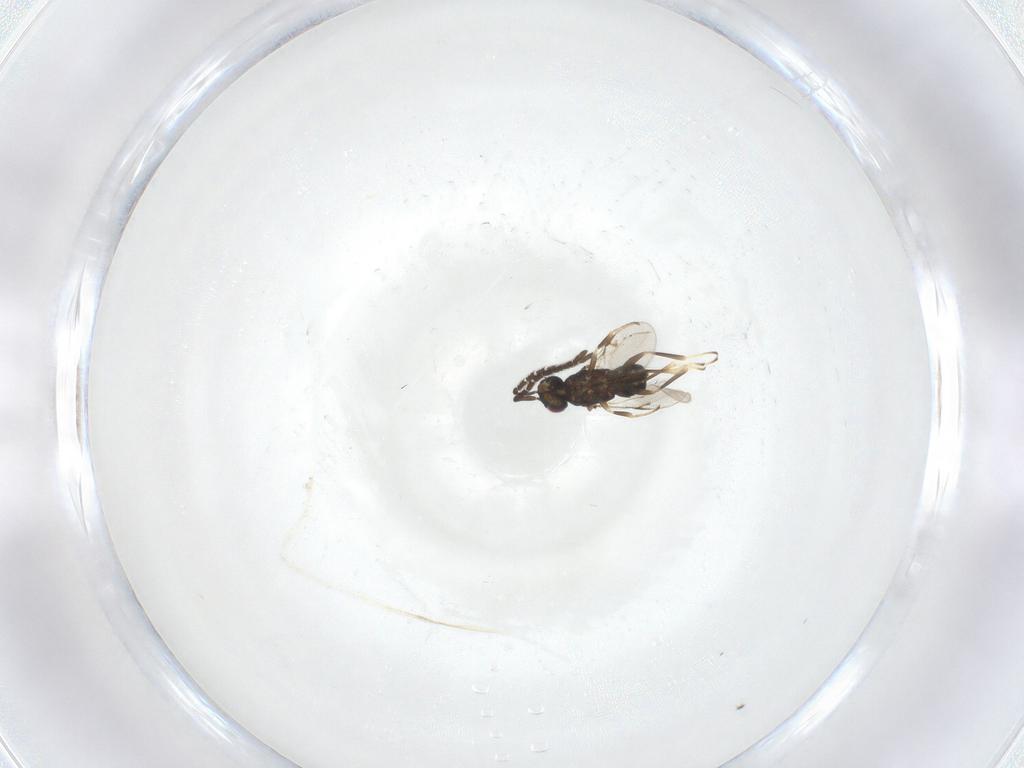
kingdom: Animalia
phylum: Arthropoda
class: Insecta
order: Hymenoptera
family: Encyrtidae
